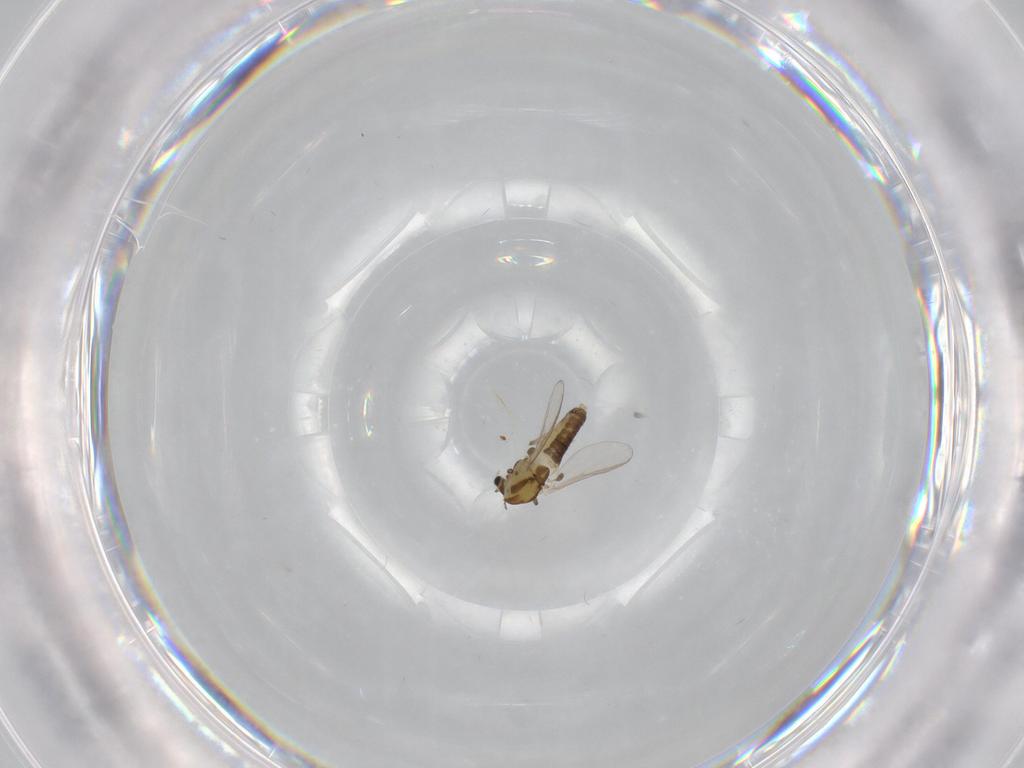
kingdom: Animalia
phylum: Arthropoda
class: Insecta
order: Diptera
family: Chironomidae
